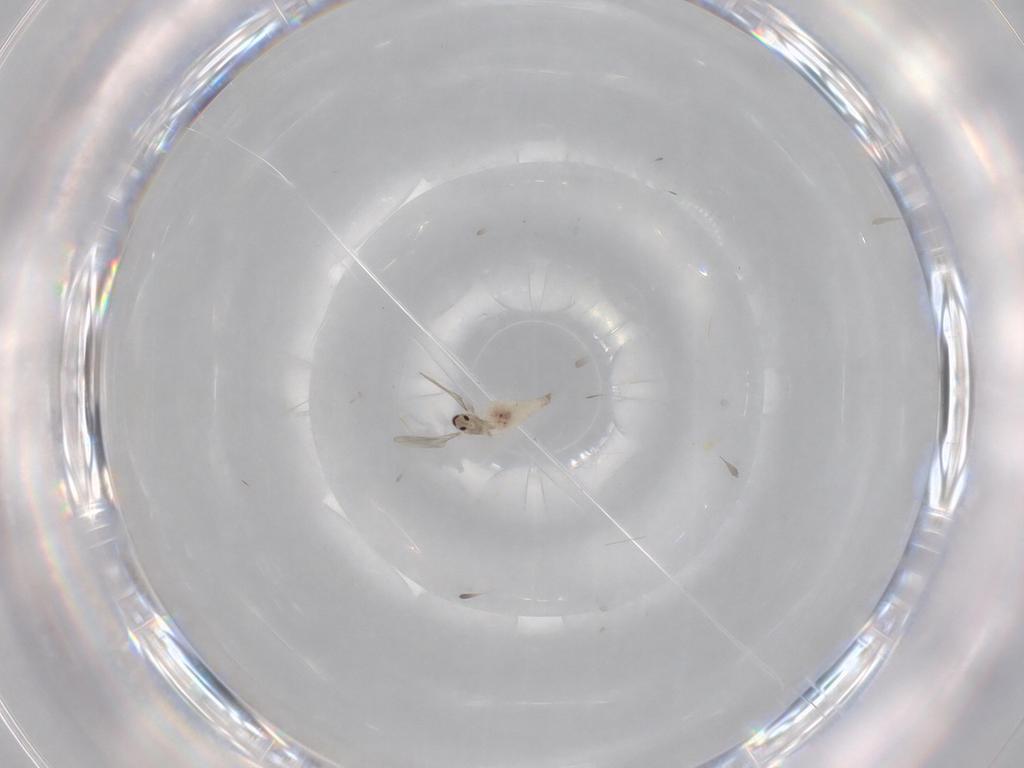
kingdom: Animalia
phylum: Arthropoda
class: Insecta
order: Diptera
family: Cecidomyiidae
